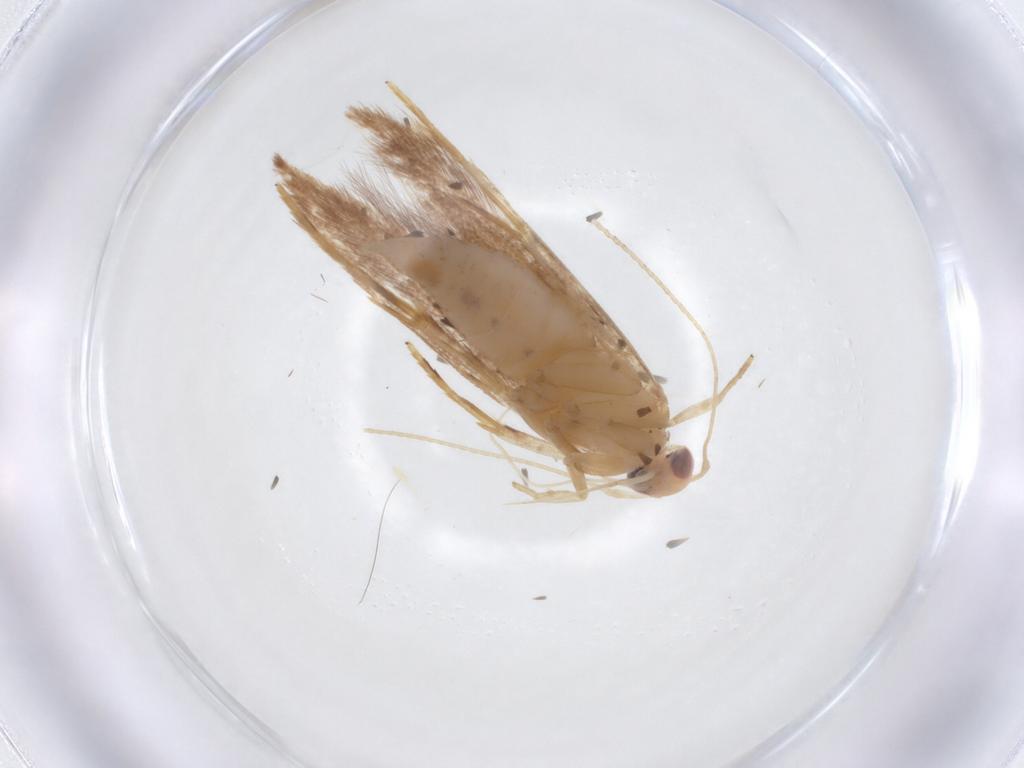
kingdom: Animalia
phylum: Arthropoda
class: Insecta
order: Lepidoptera
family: Cosmopterigidae
